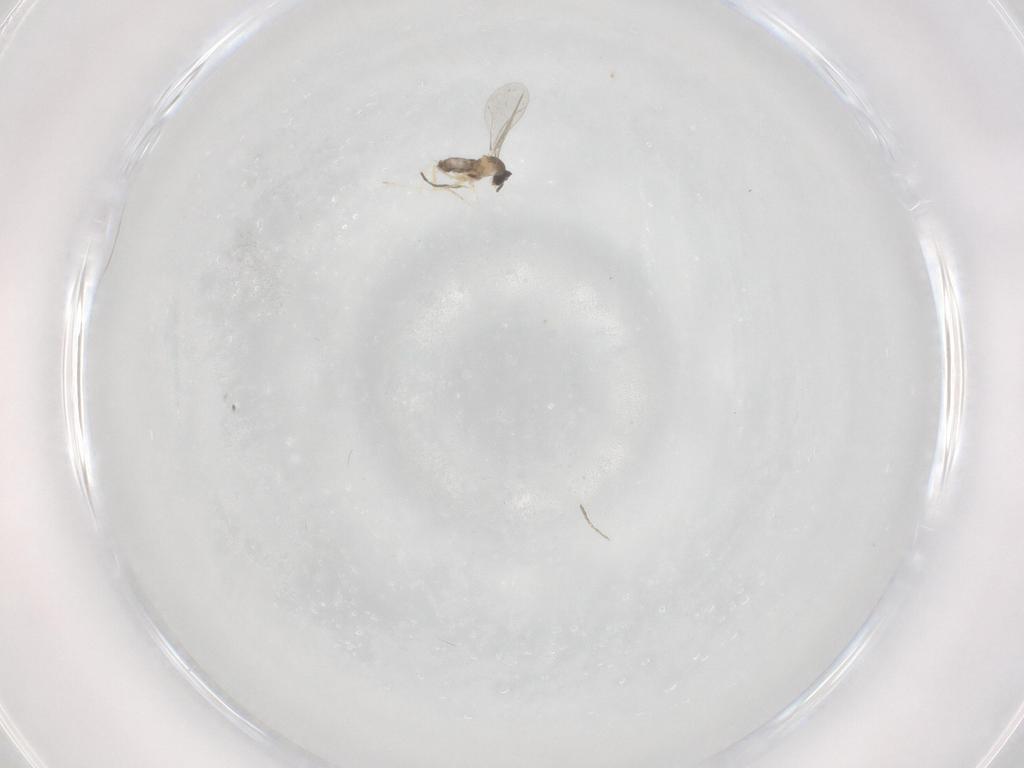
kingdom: Animalia
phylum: Arthropoda
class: Insecta
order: Diptera
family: Cecidomyiidae
